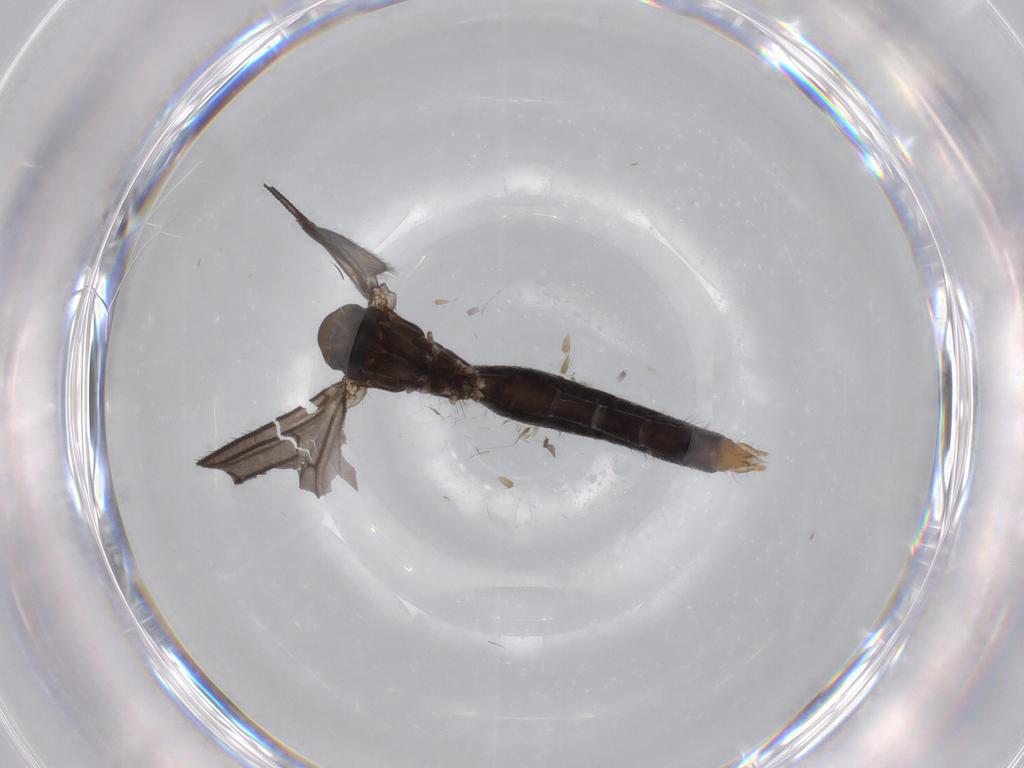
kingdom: Animalia
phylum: Arthropoda
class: Insecta
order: Diptera
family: Ditomyiidae
